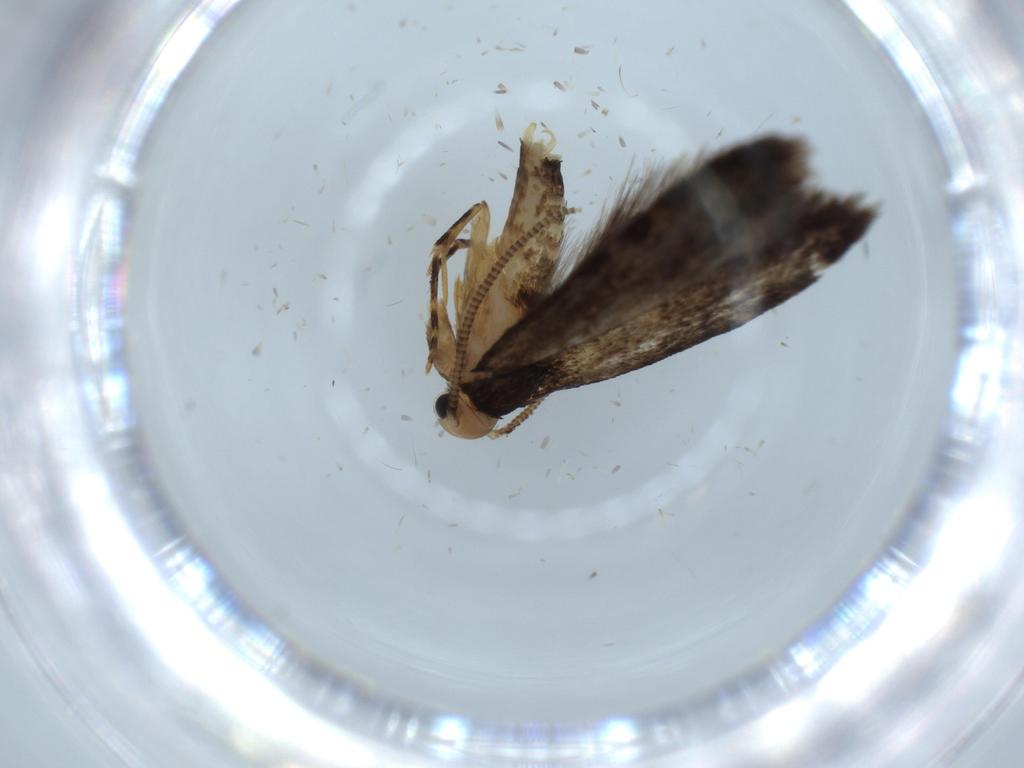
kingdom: Animalia
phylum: Arthropoda
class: Insecta
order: Lepidoptera
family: Tineidae
